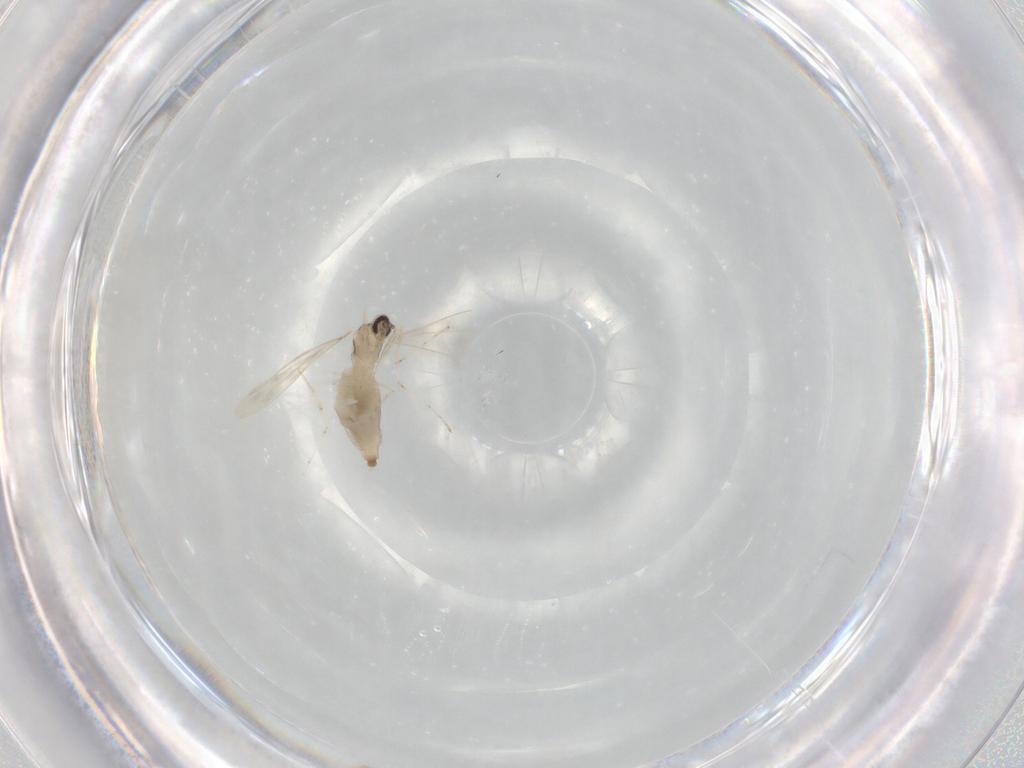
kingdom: Animalia
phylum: Arthropoda
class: Insecta
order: Diptera
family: Cecidomyiidae
